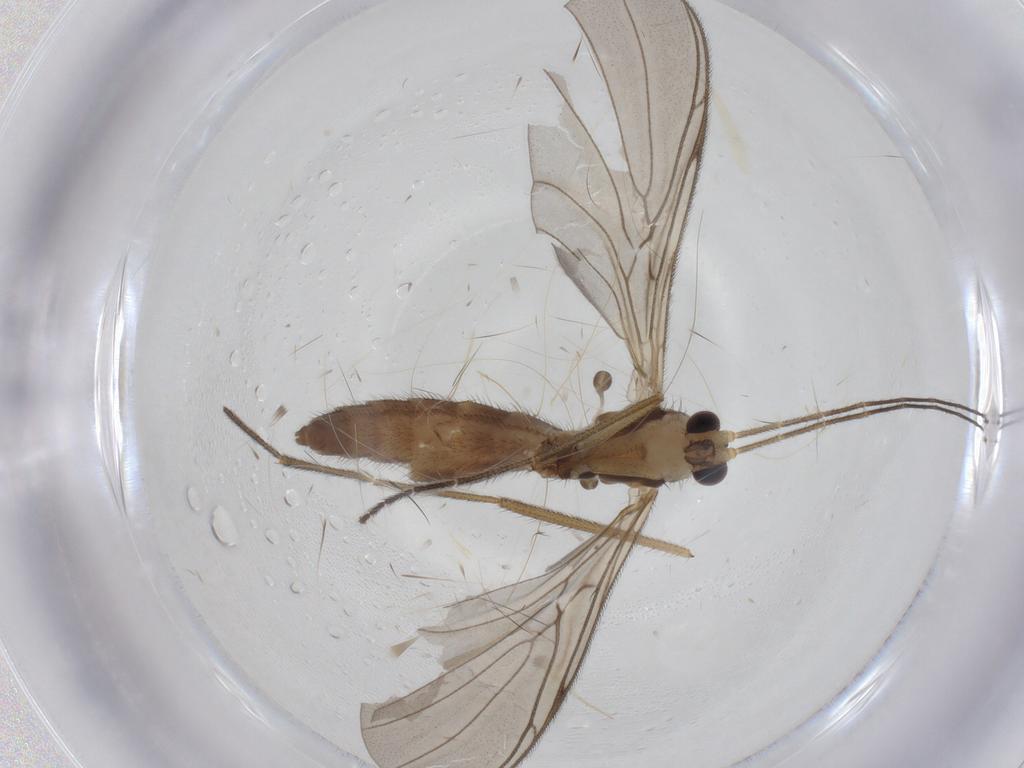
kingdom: Animalia
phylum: Arthropoda
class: Insecta
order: Diptera
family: Keroplatidae
